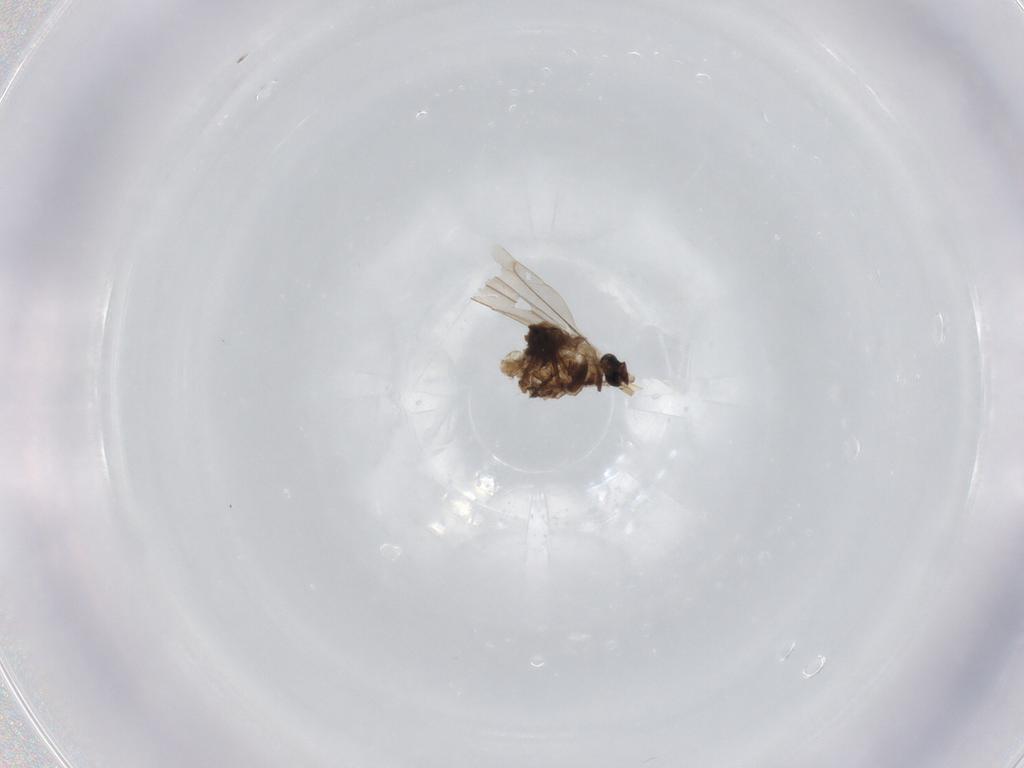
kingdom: Animalia
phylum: Arthropoda
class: Insecta
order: Diptera
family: Cecidomyiidae
